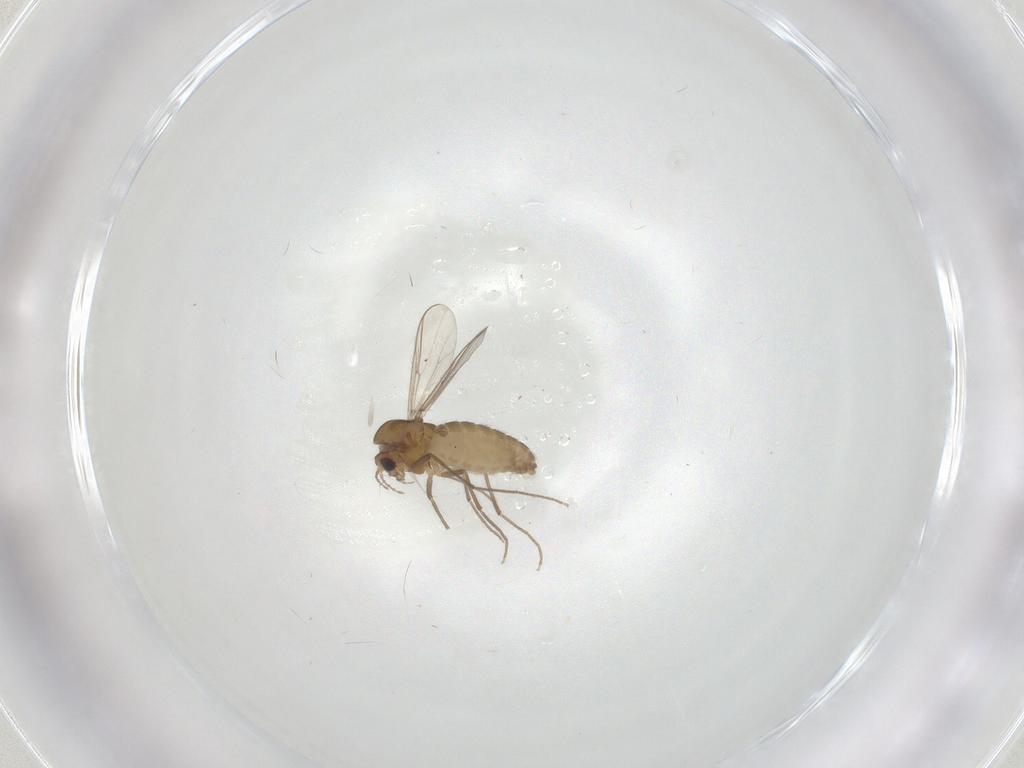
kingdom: Animalia
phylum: Arthropoda
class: Insecta
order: Diptera
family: Chironomidae
